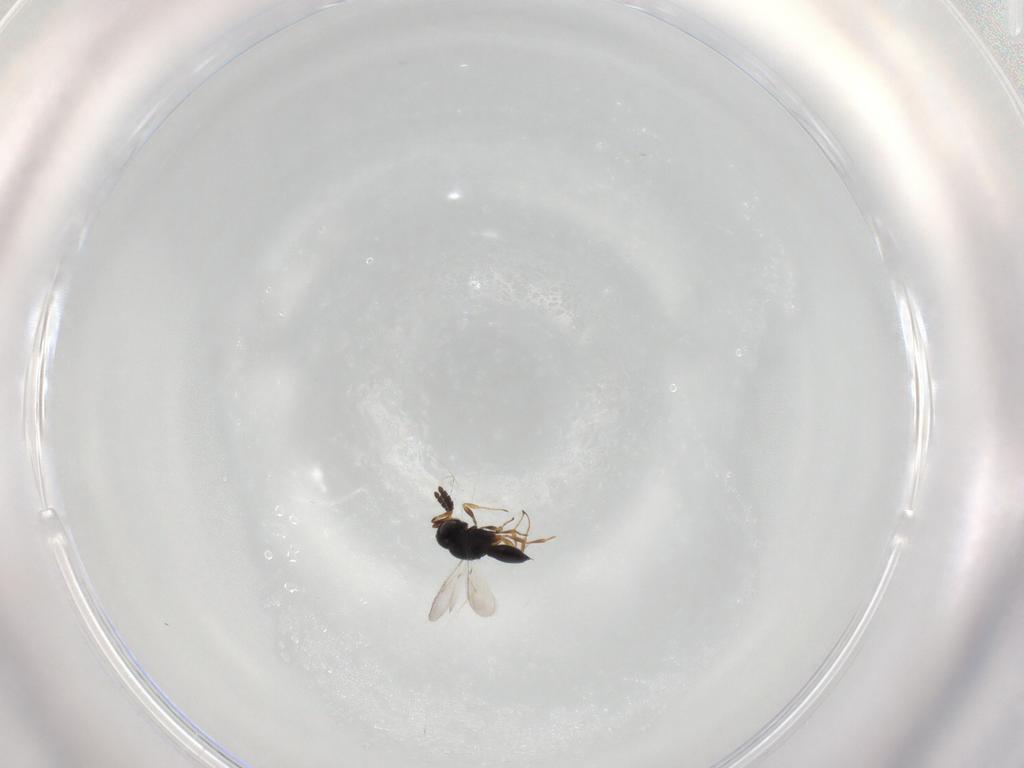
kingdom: Animalia
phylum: Arthropoda
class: Insecta
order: Hymenoptera
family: Scelionidae
